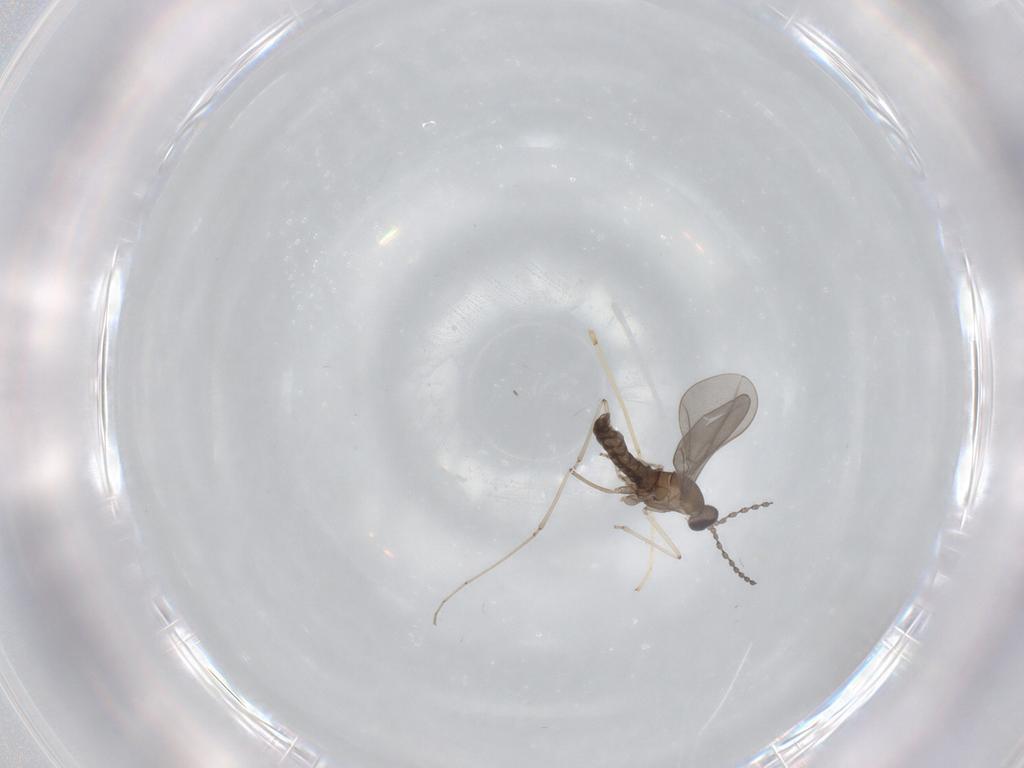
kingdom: Animalia
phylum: Arthropoda
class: Insecta
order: Diptera
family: Cecidomyiidae
